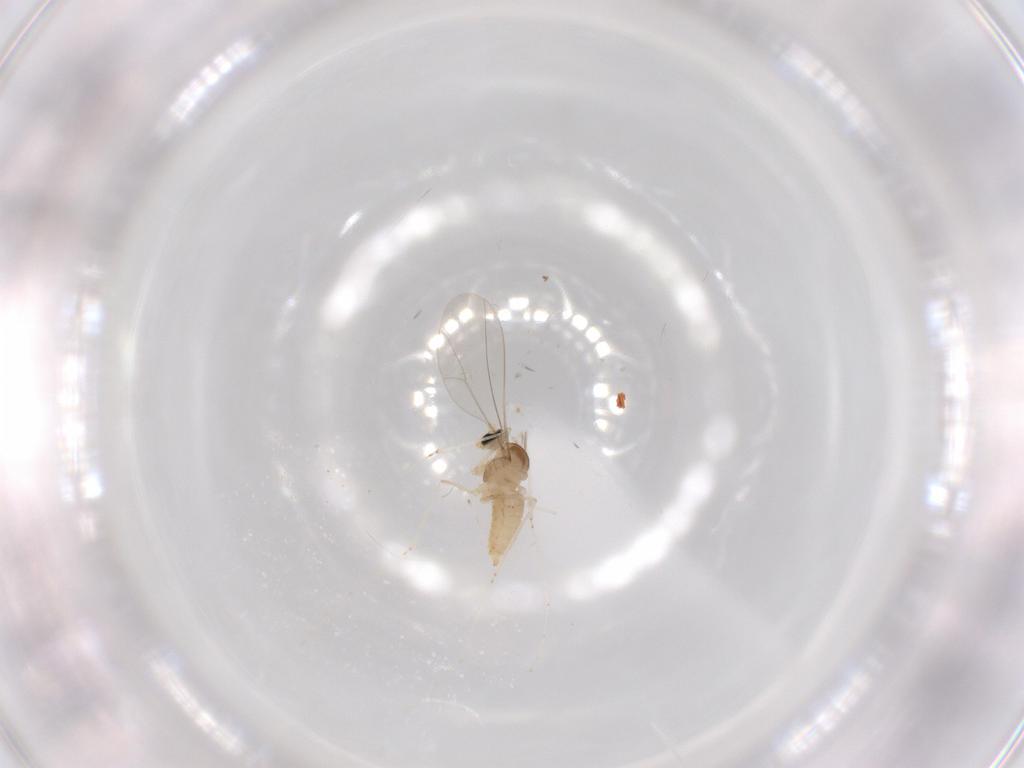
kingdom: Animalia
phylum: Arthropoda
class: Insecta
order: Diptera
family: Cecidomyiidae
